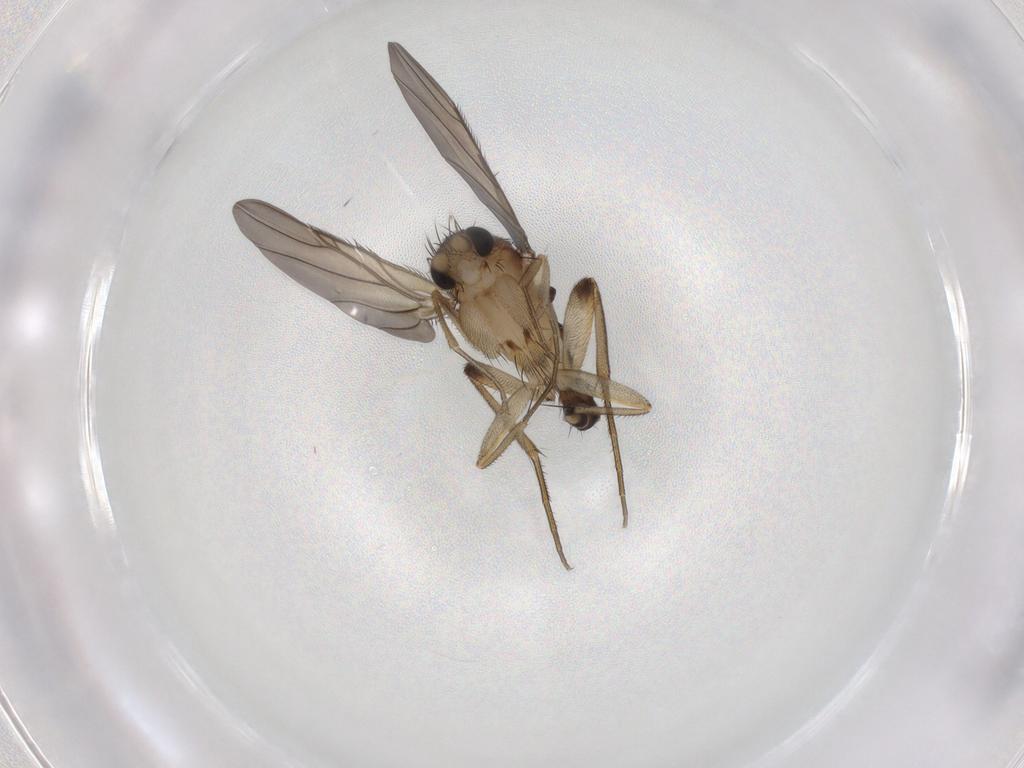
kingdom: Animalia
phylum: Arthropoda
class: Insecta
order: Diptera
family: Phoridae
